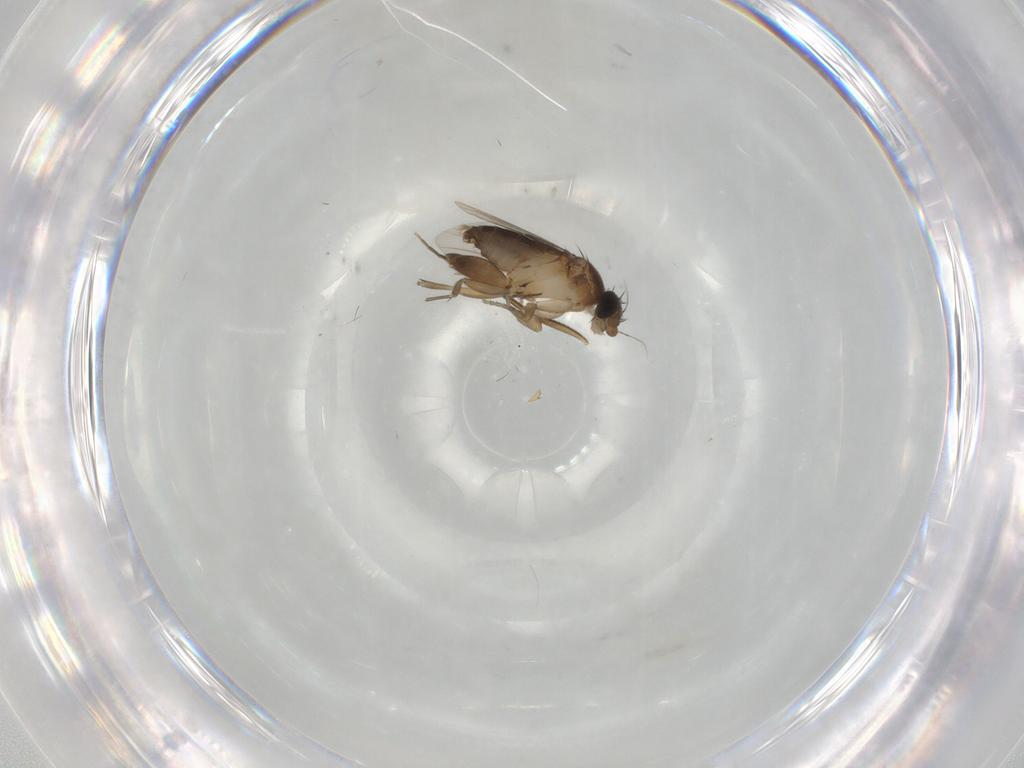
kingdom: Animalia
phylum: Arthropoda
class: Insecta
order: Diptera
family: Phoridae
